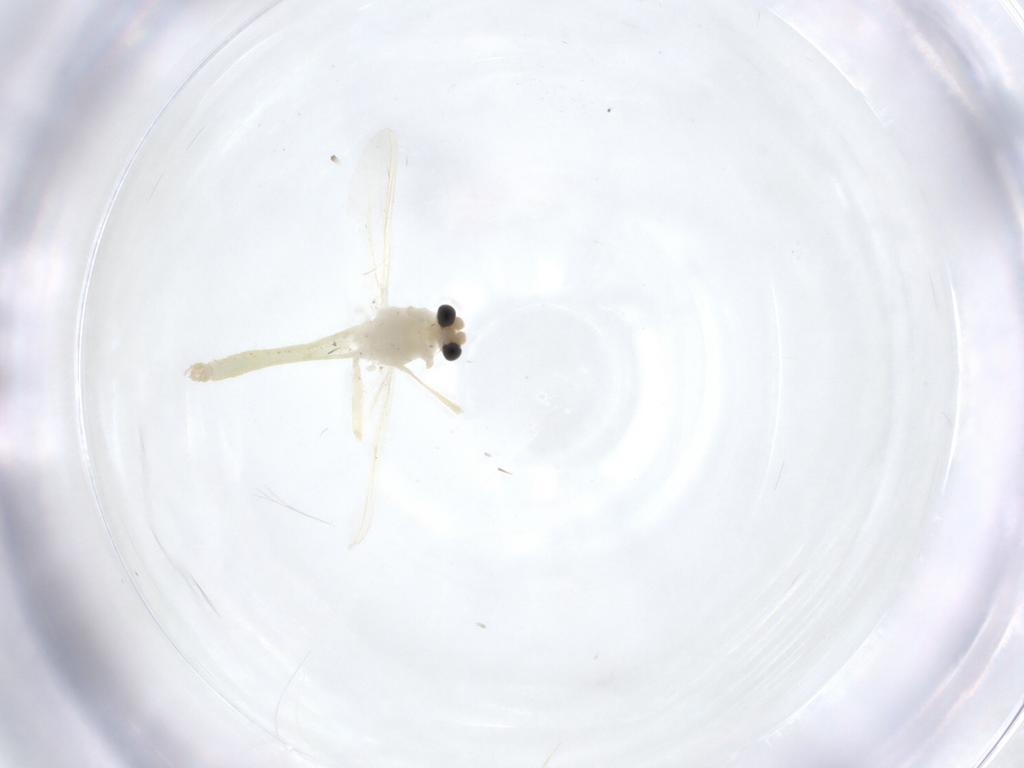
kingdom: Animalia
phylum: Arthropoda
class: Insecta
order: Diptera
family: Chironomidae
